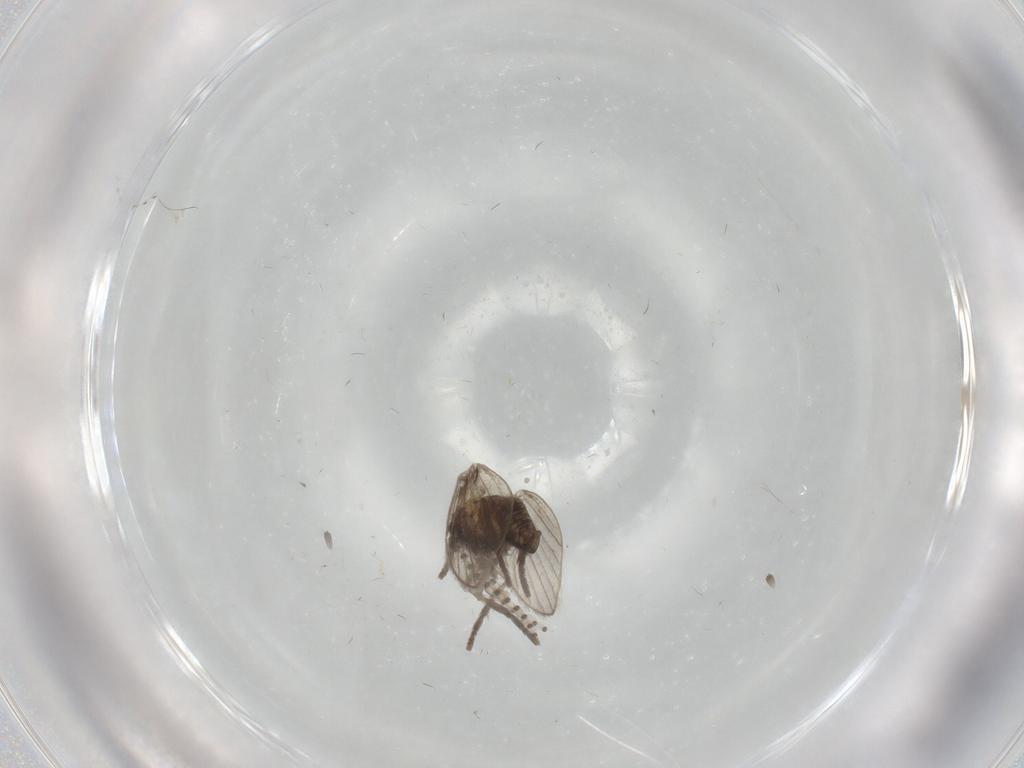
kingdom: Animalia
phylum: Arthropoda
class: Insecta
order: Diptera
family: Psychodidae
